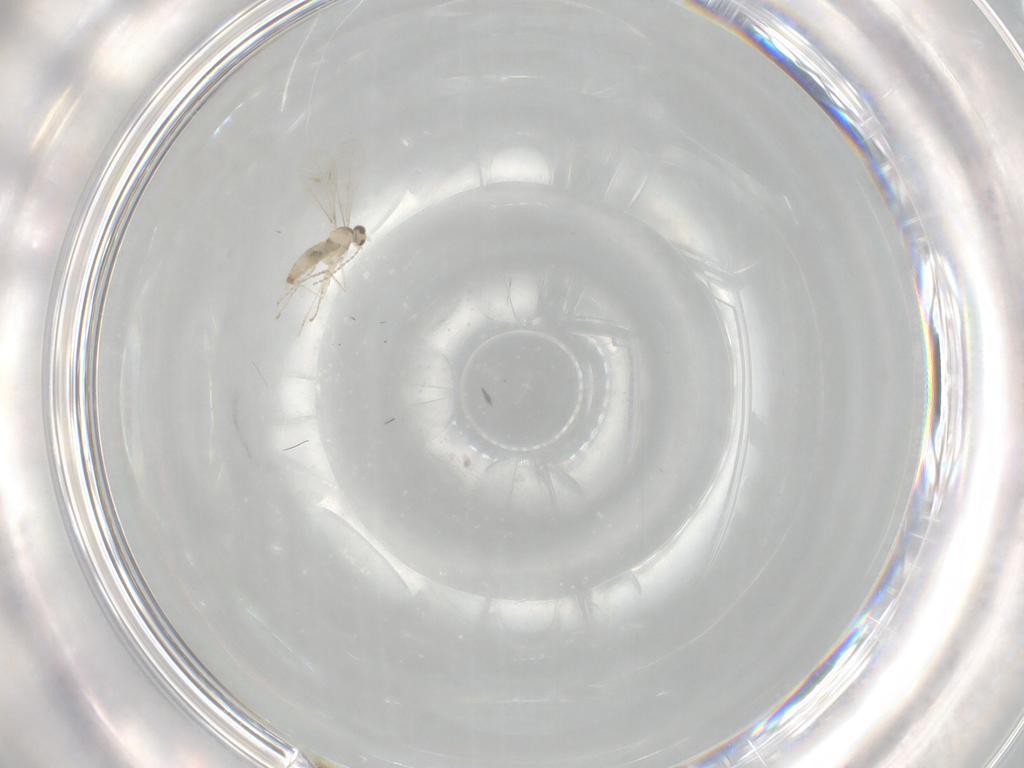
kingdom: Animalia
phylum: Arthropoda
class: Insecta
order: Diptera
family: Cecidomyiidae
